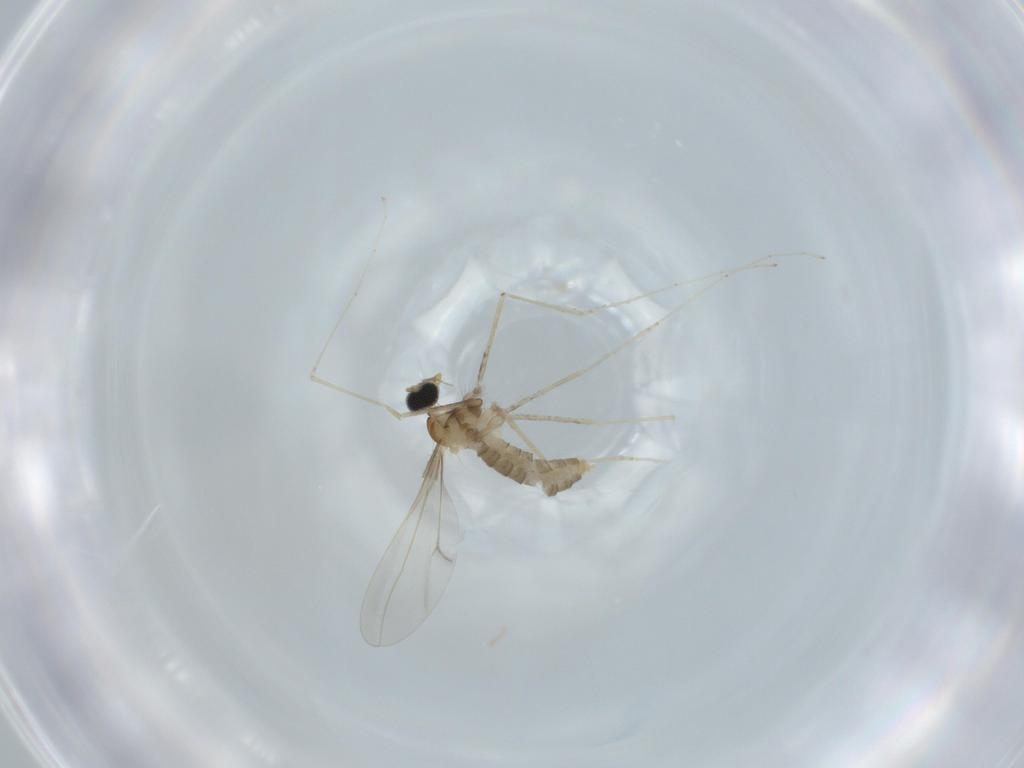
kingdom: Animalia
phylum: Arthropoda
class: Insecta
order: Diptera
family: Cecidomyiidae
